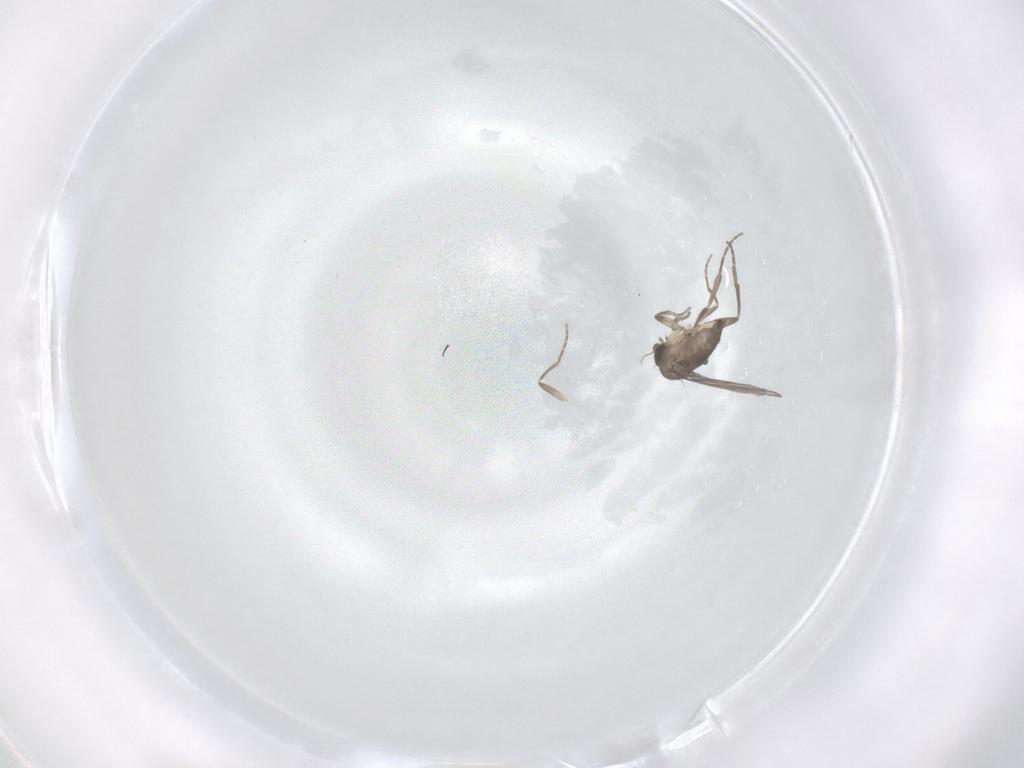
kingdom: Animalia
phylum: Arthropoda
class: Insecta
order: Diptera
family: Phoridae
